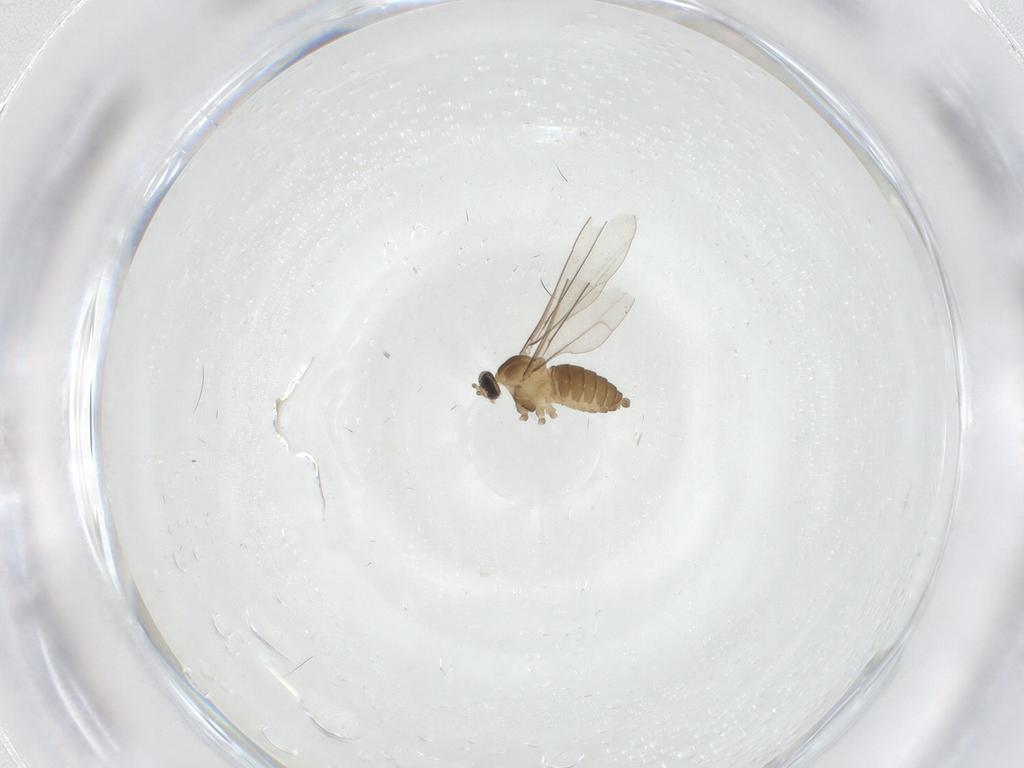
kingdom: Animalia
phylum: Arthropoda
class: Insecta
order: Diptera
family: Cecidomyiidae
